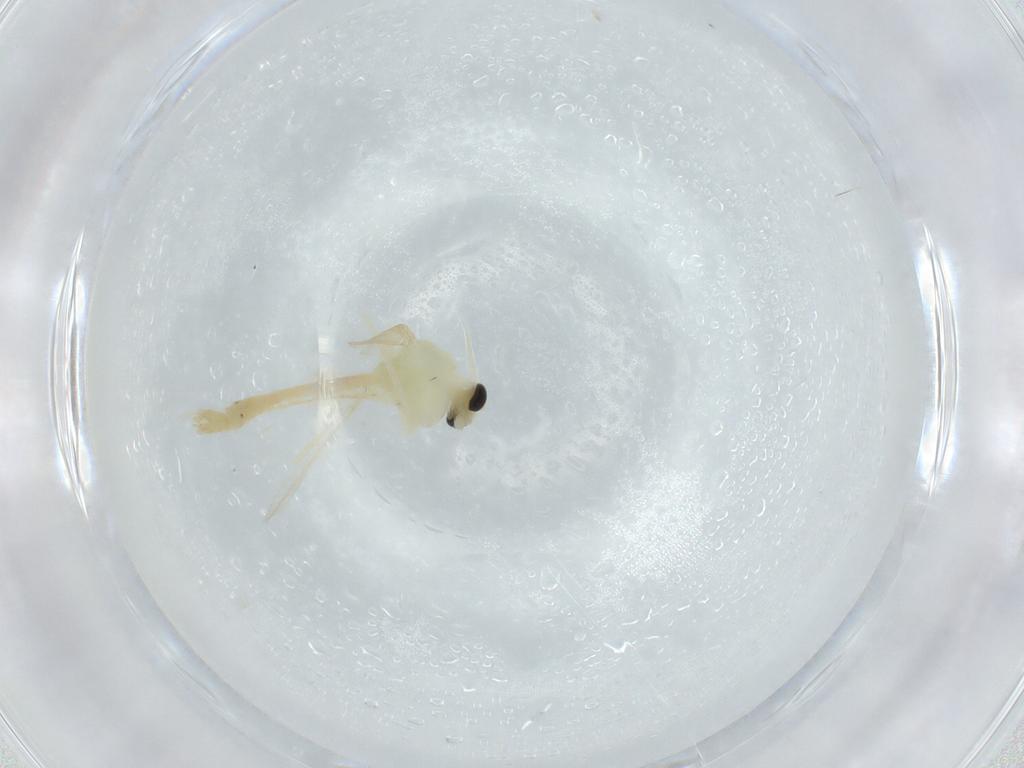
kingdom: Animalia
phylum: Arthropoda
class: Insecta
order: Diptera
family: Chironomidae
